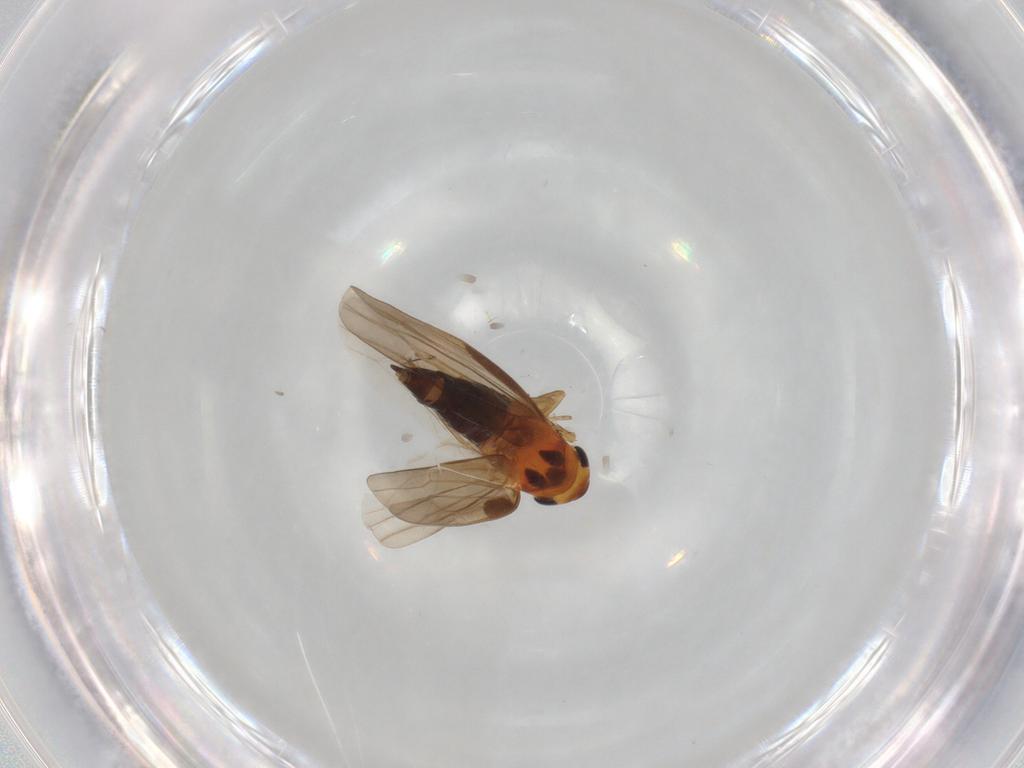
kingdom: Animalia
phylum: Arthropoda
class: Insecta
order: Hemiptera
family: Cicadellidae
